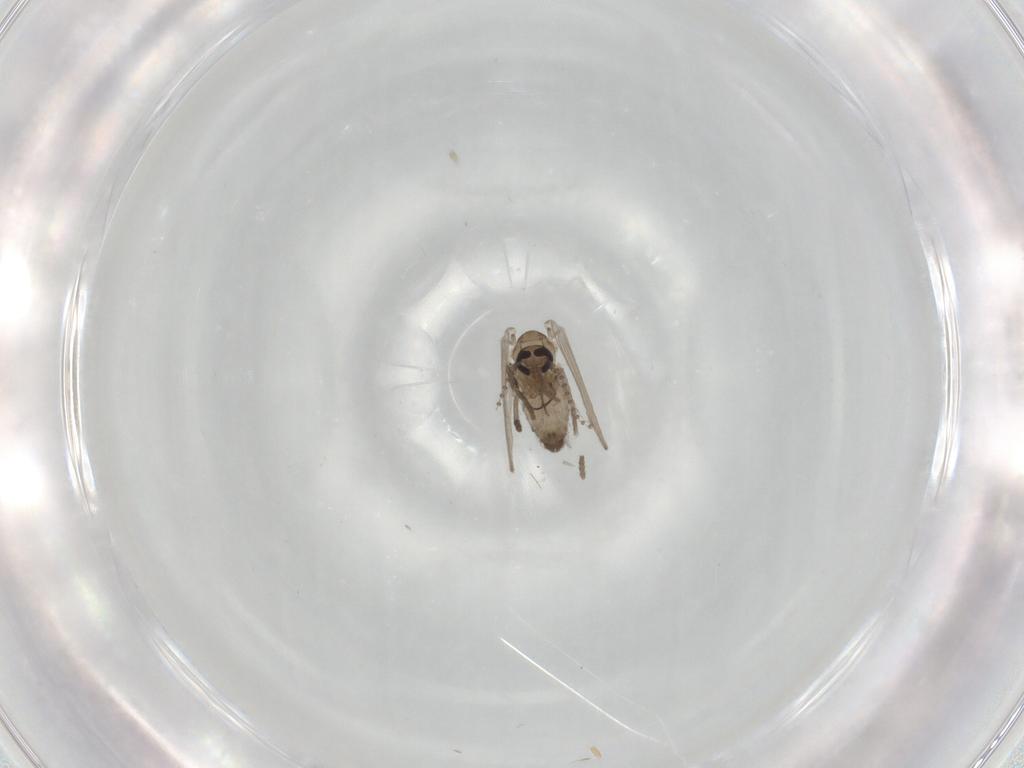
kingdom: Animalia
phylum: Arthropoda
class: Insecta
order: Diptera
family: Psychodidae
